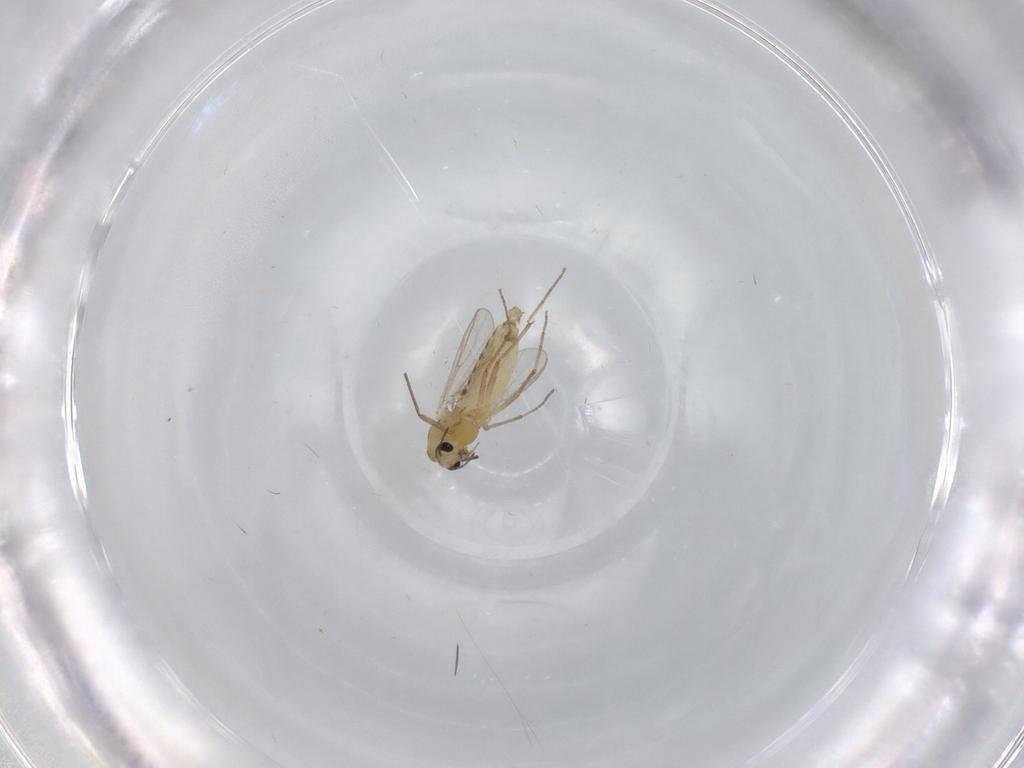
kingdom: Animalia
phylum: Arthropoda
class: Insecta
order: Diptera
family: Chironomidae
